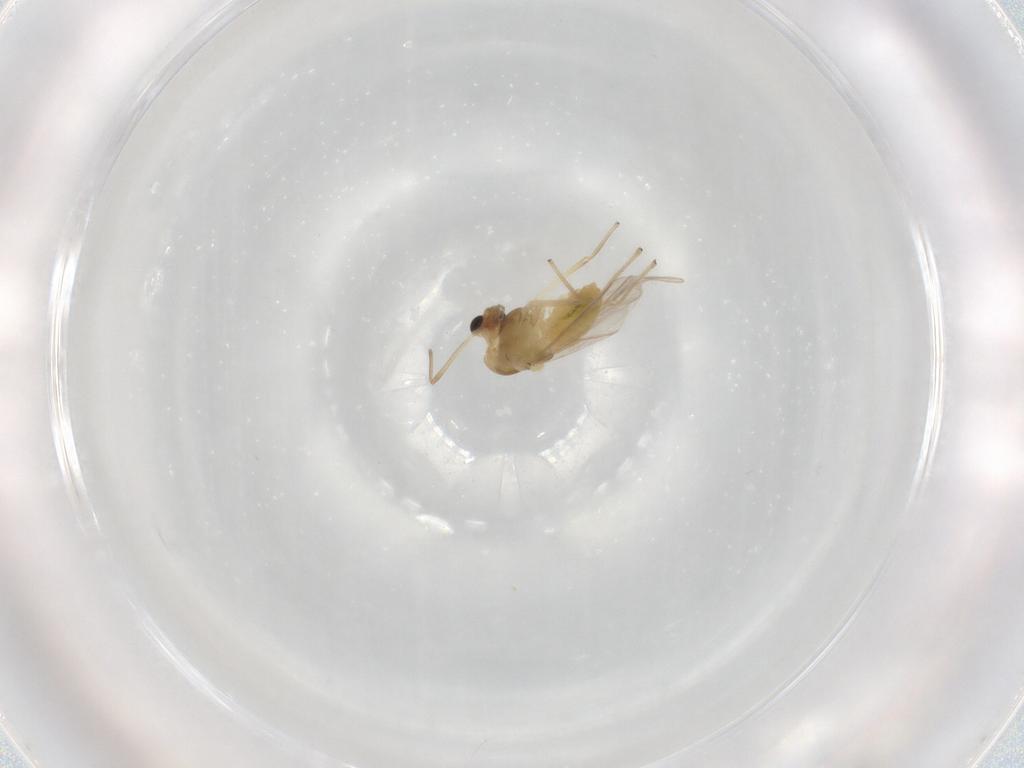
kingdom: Animalia
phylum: Arthropoda
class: Insecta
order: Diptera
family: Chironomidae
